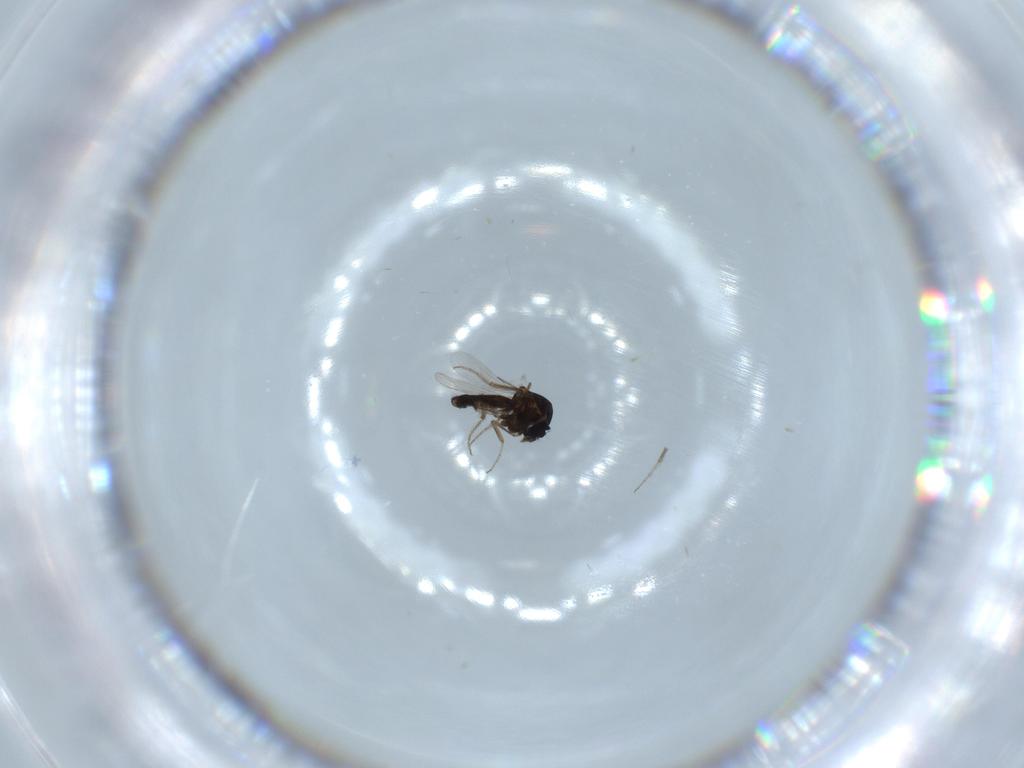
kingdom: Animalia
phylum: Arthropoda
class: Insecta
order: Diptera
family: Ceratopogonidae
